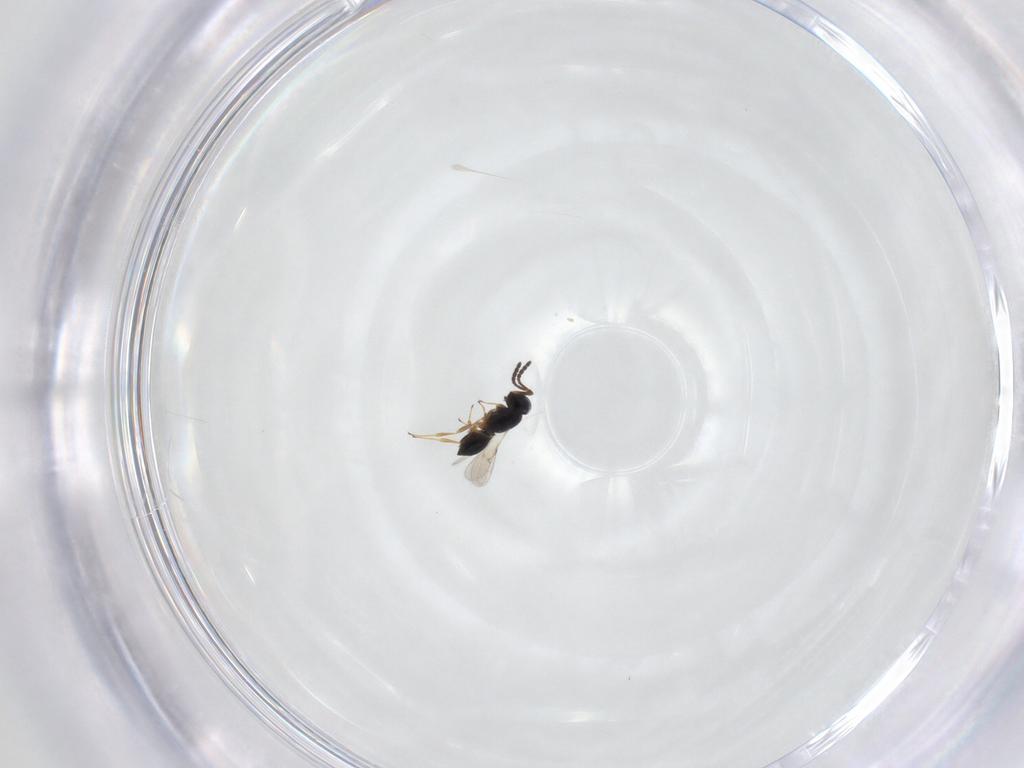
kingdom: Animalia
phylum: Arthropoda
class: Insecta
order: Hymenoptera
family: Scelionidae
